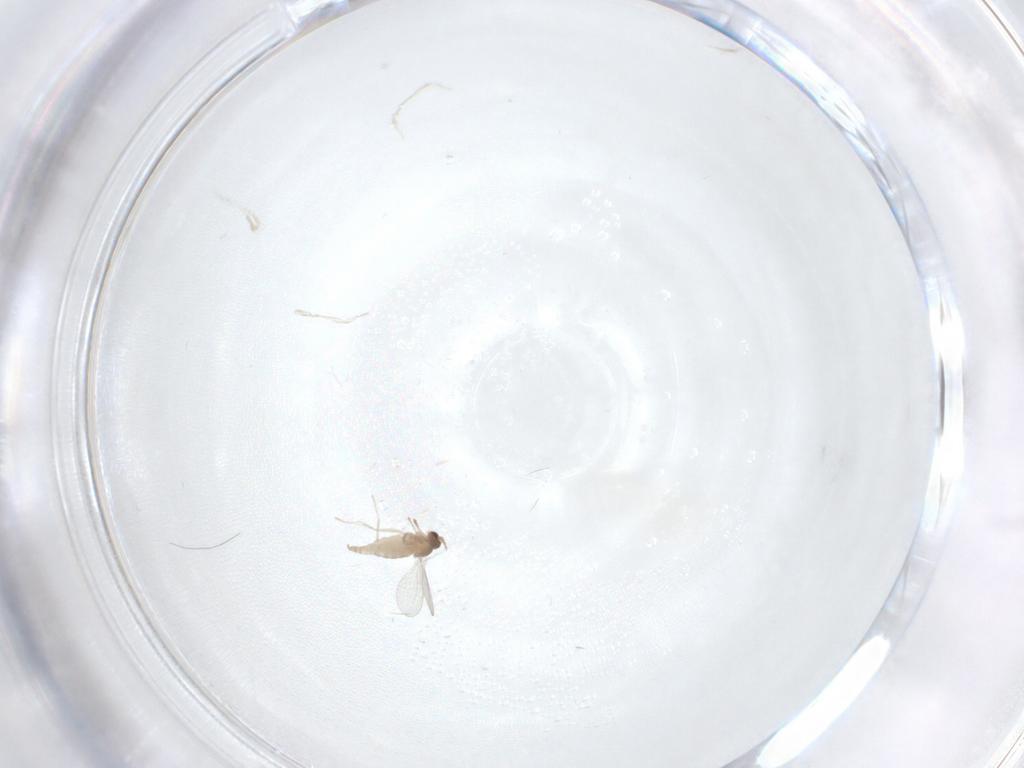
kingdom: Animalia
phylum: Arthropoda
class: Insecta
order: Diptera
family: Cecidomyiidae
